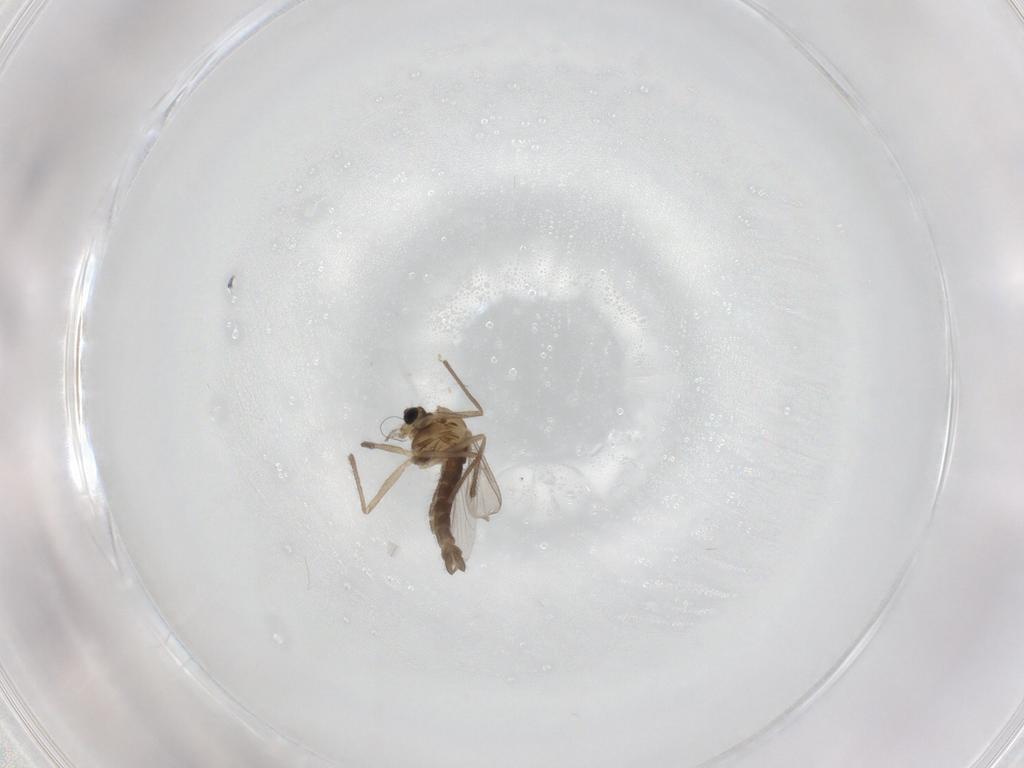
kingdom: Animalia
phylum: Arthropoda
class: Insecta
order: Diptera
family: Chironomidae
